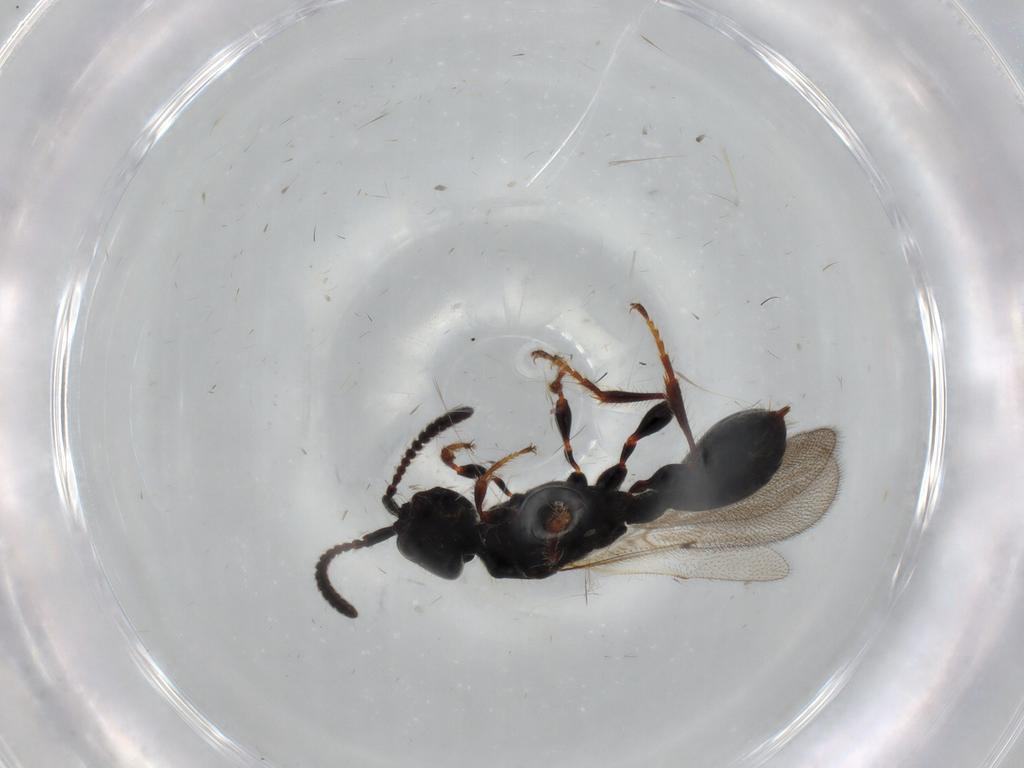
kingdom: Animalia
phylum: Arthropoda
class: Insecta
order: Hymenoptera
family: Diapriidae
